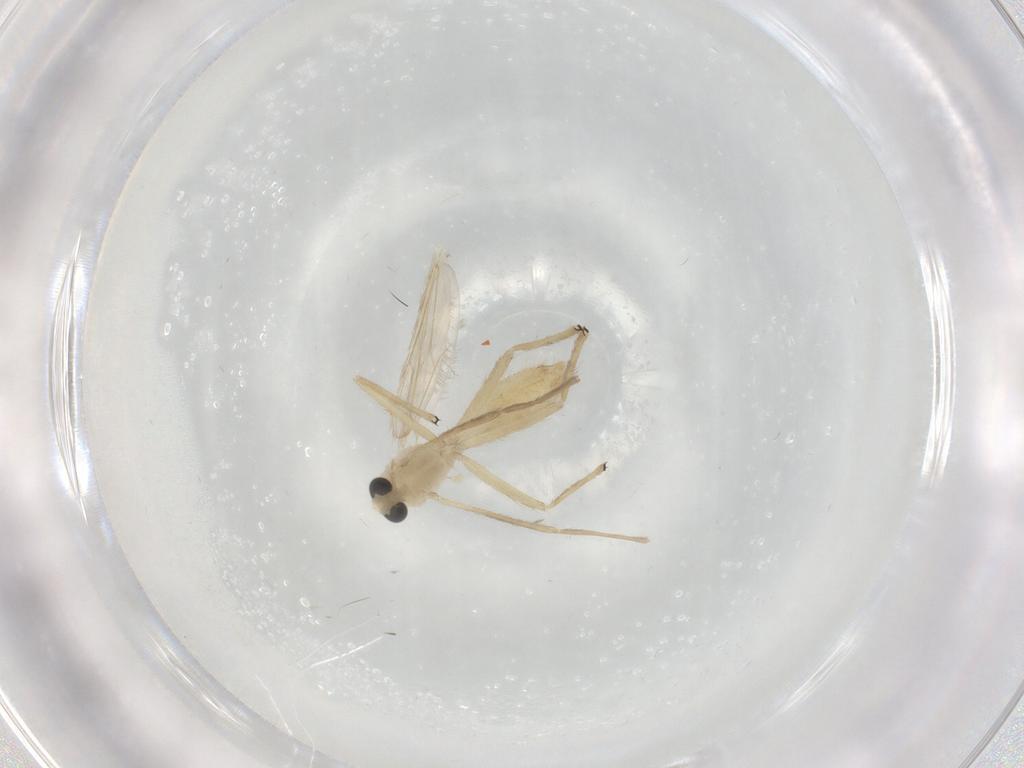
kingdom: Animalia
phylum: Arthropoda
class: Insecta
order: Diptera
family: Chironomidae
